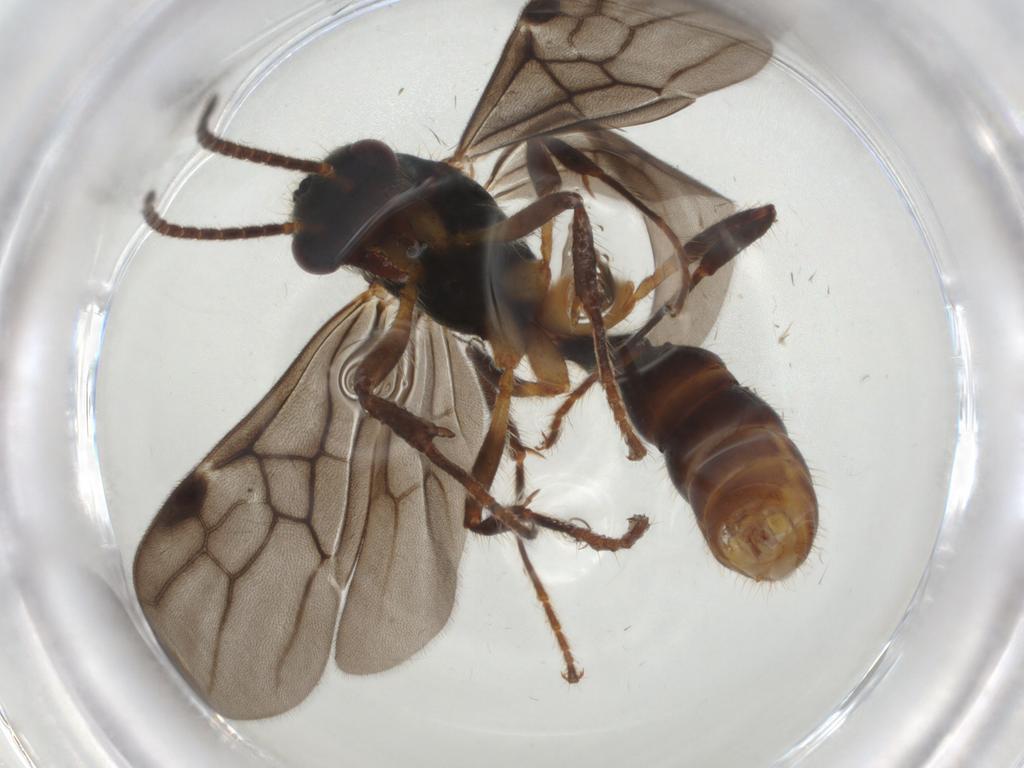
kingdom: Animalia
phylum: Arthropoda
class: Insecta
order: Hymenoptera
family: Formicidae
